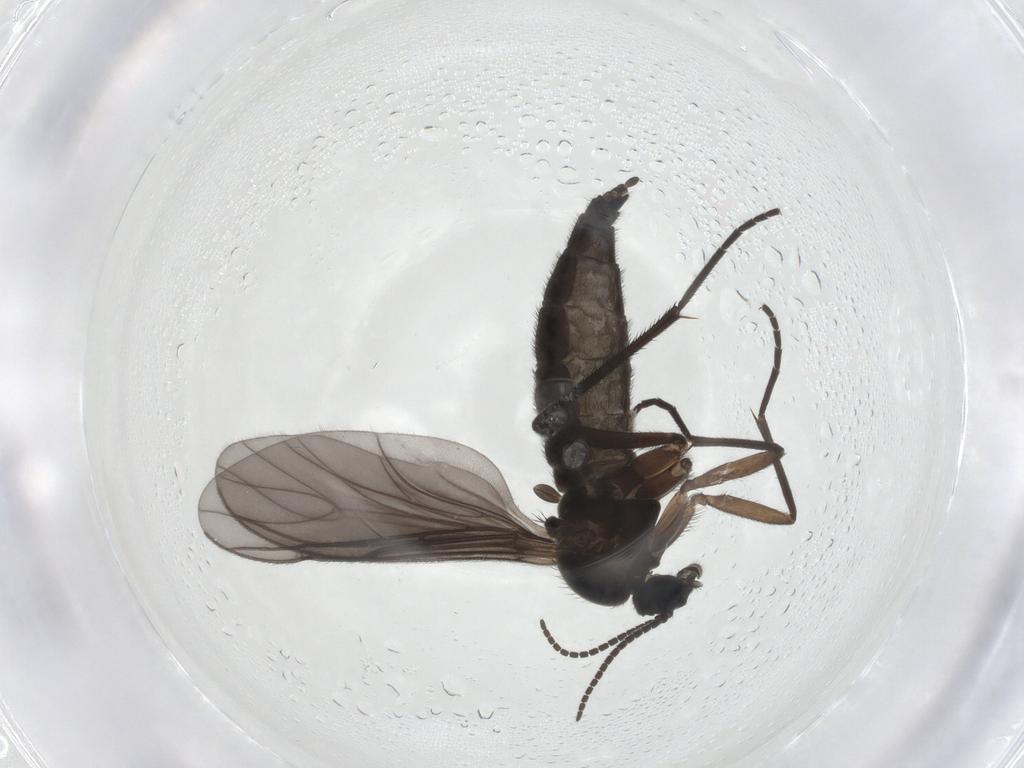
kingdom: Animalia
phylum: Arthropoda
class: Insecta
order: Diptera
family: Sciaridae
